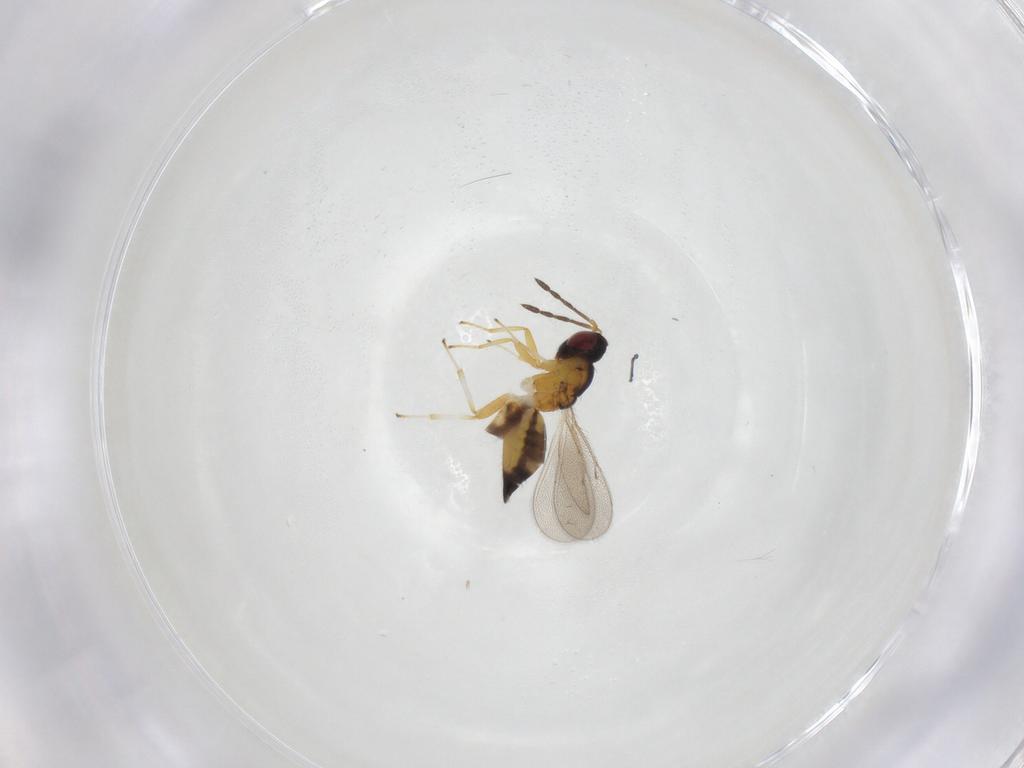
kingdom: Animalia
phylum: Arthropoda
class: Insecta
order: Hymenoptera
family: Eulophidae
